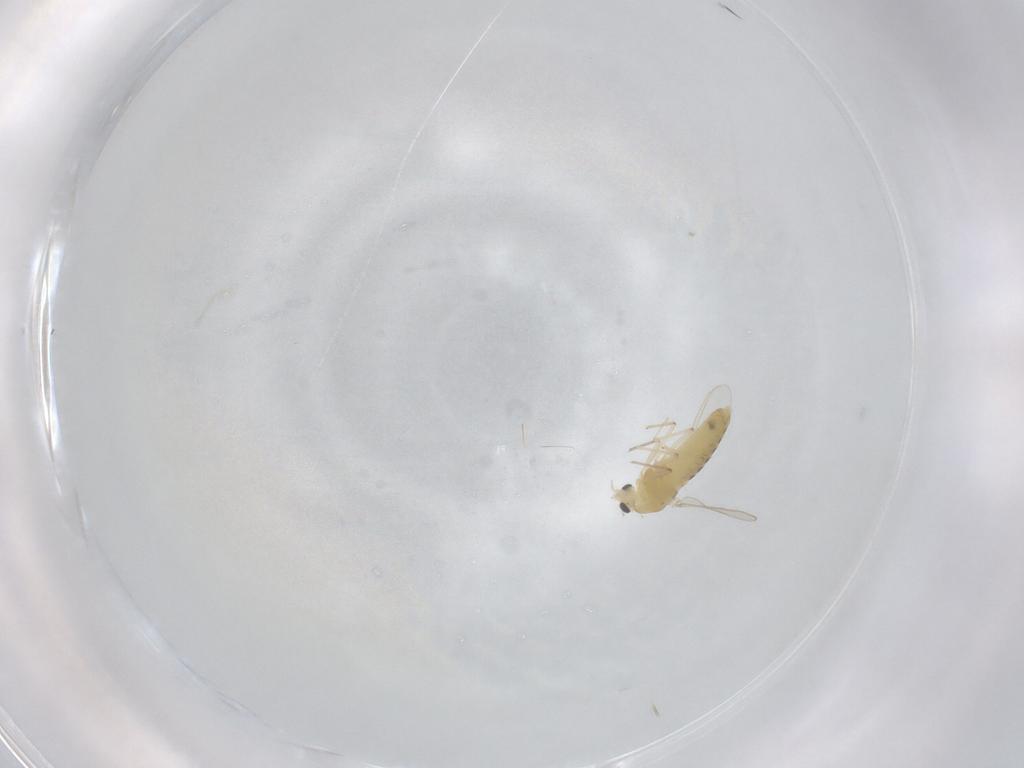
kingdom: Animalia
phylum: Arthropoda
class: Insecta
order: Diptera
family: Chironomidae
